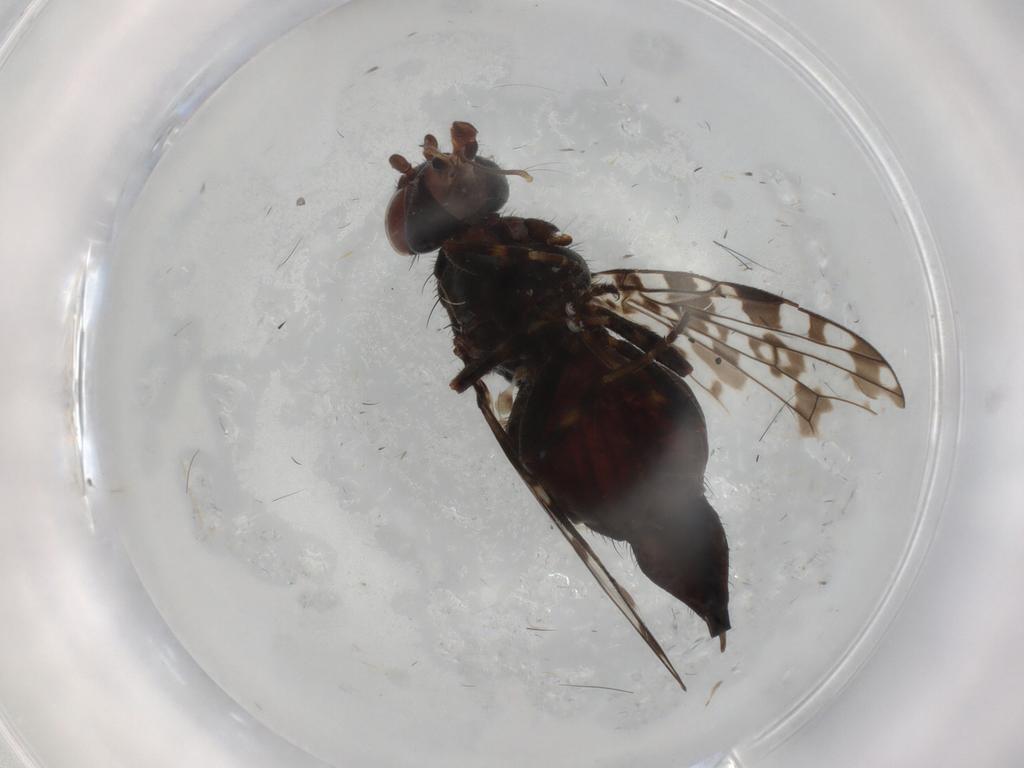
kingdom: Animalia
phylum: Arthropoda
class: Insecta
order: Diptera
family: Ulidiidae
